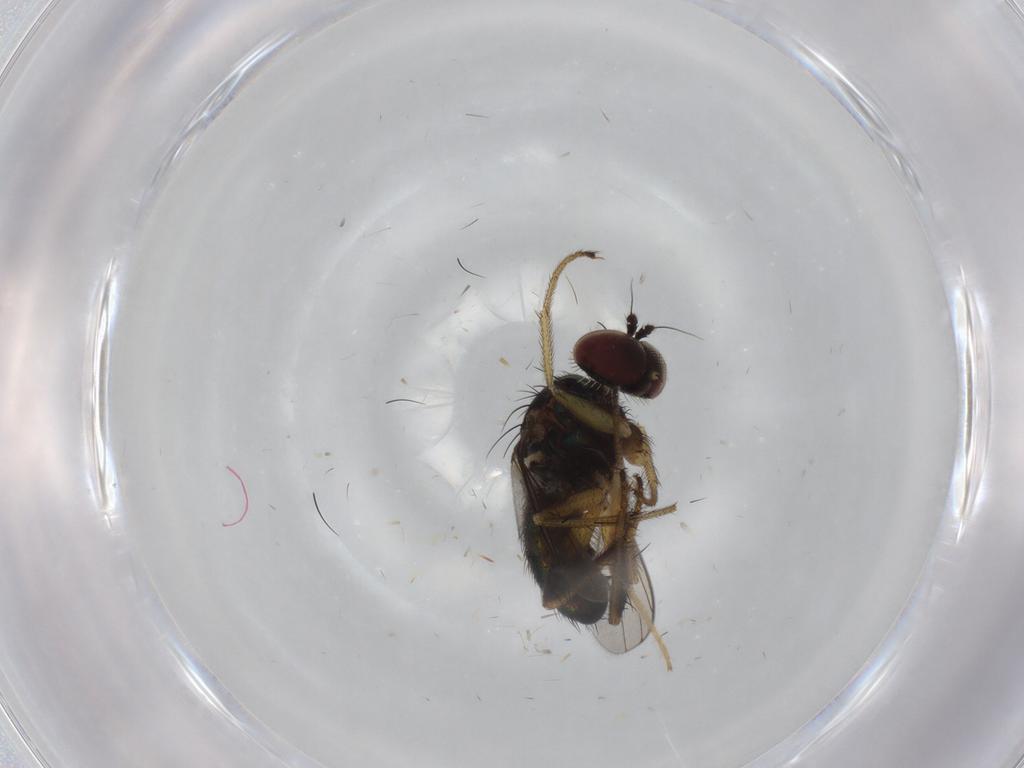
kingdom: Animalia
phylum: Arthropoda
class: Insecta
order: Diptera
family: Dolichopodidae
